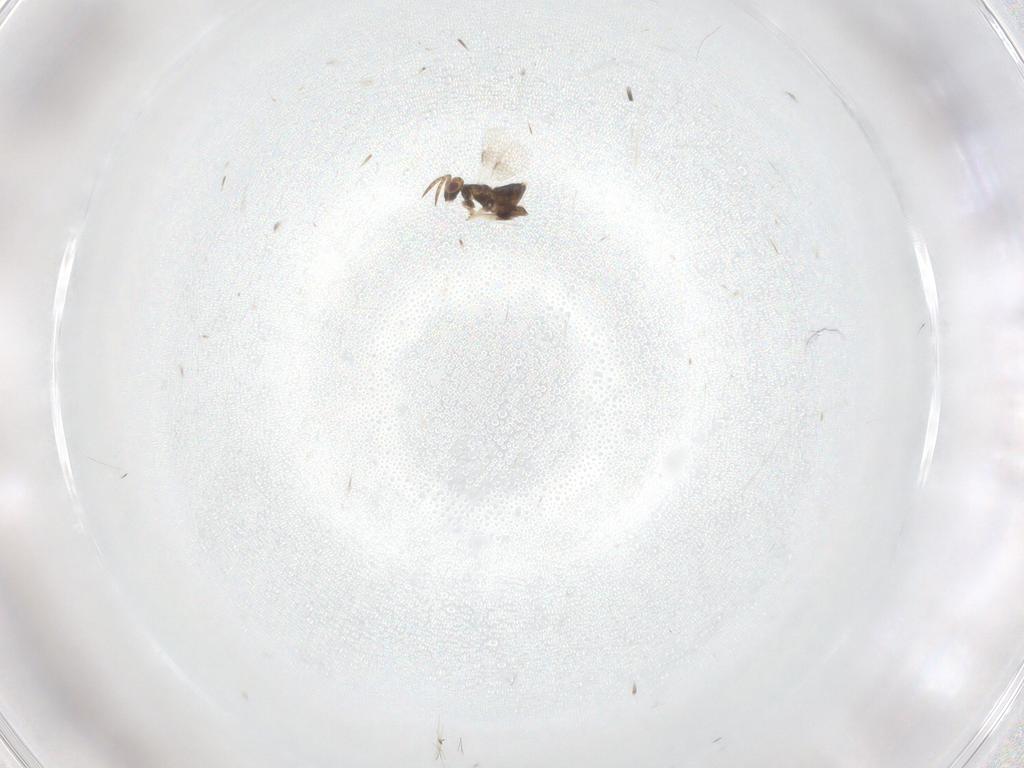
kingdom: Animalia
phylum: Arthropoda
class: Insecta
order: Hymenoptera
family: Aphelinidae
